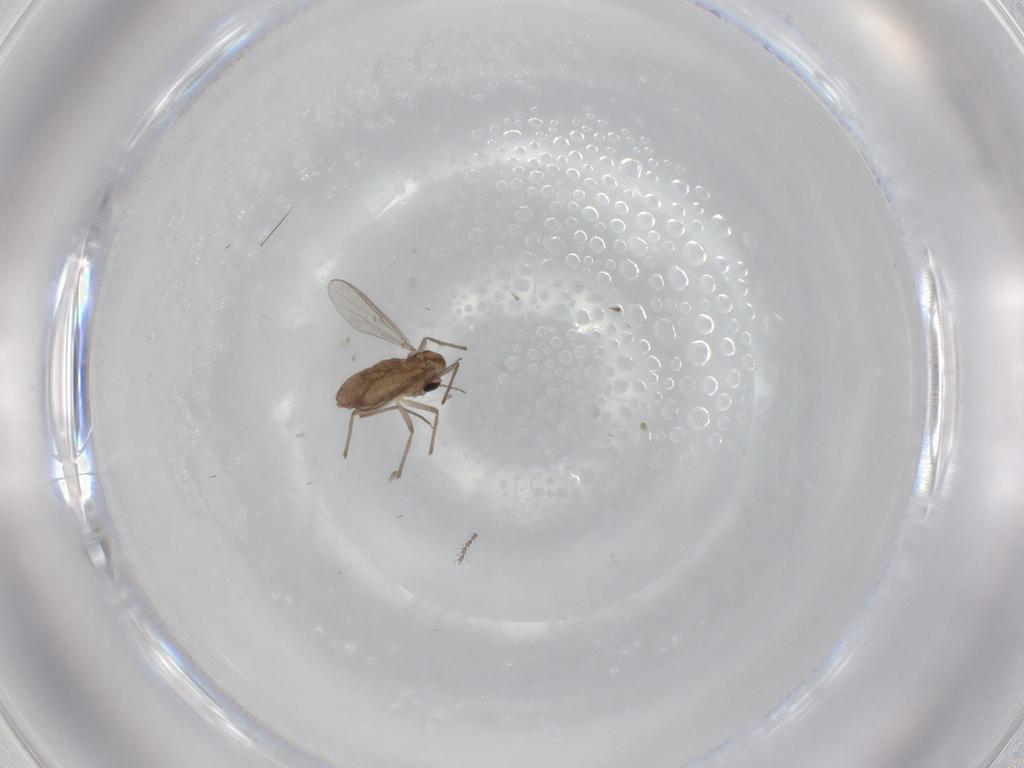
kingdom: Animalia
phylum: Arthropoda
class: Insecta
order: Diptera
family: Chironomidae
